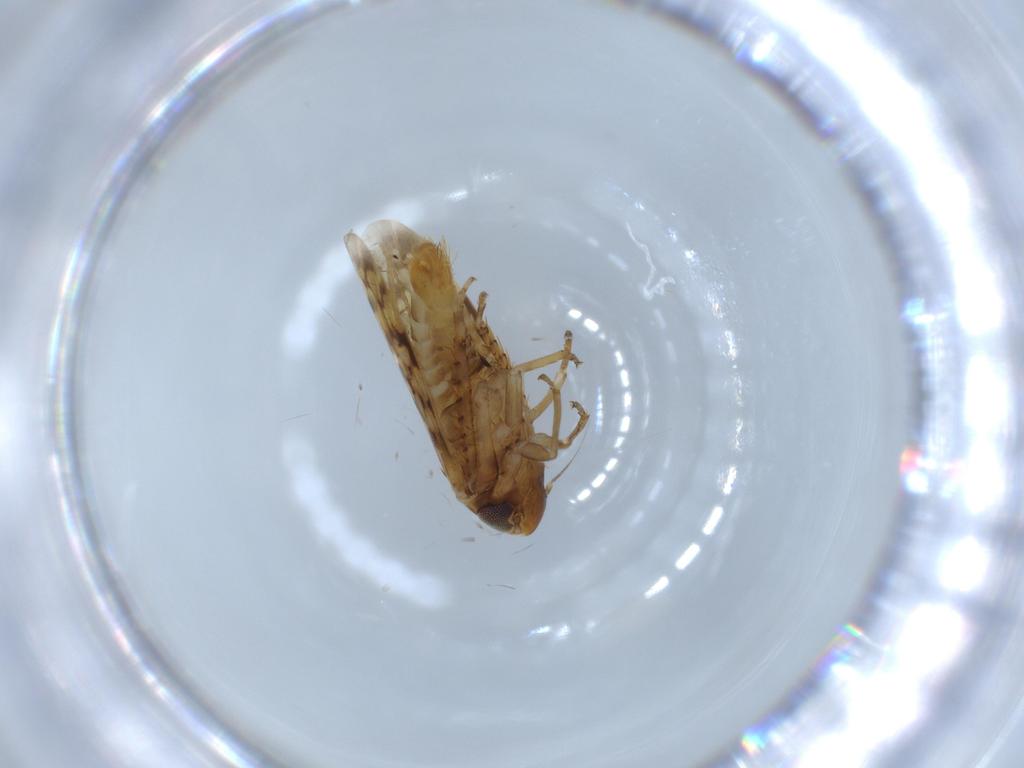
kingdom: Animalia
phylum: Arthropoda
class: Insecta
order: Hemiptera
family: Cicadellidae
